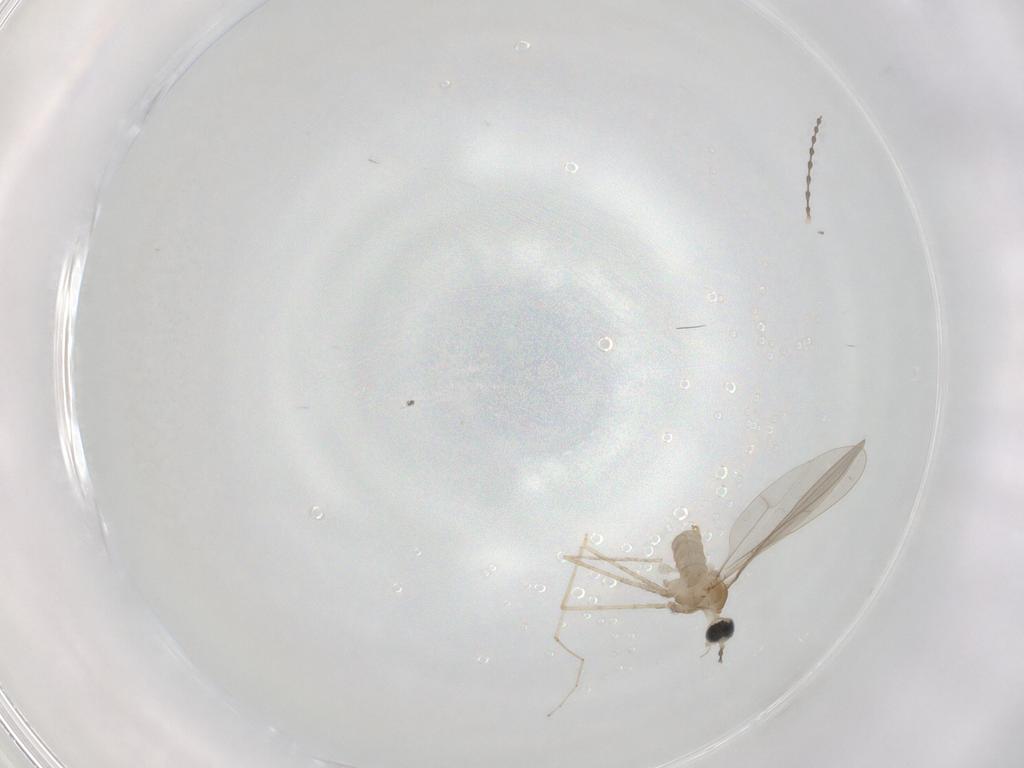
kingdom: Animalia
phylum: Arthropoda
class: Insecta
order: Diptera
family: Cecidomyiidae
